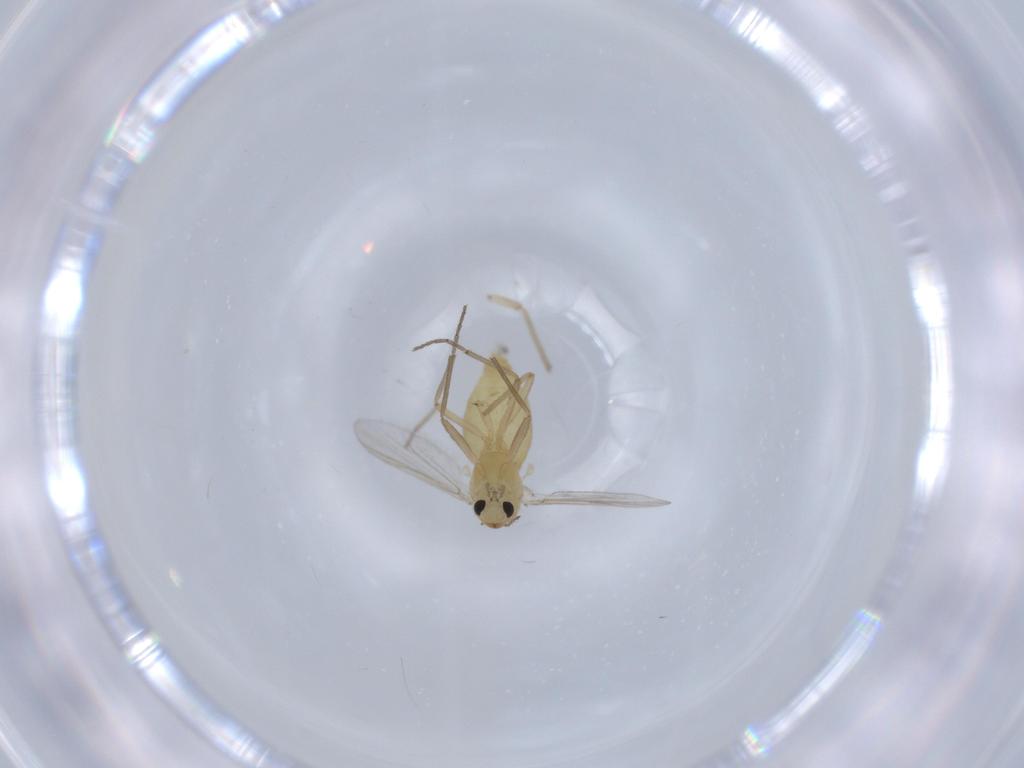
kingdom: Animalia
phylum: Arthropoda
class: Insecta
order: Diptera
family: Chironomidae
